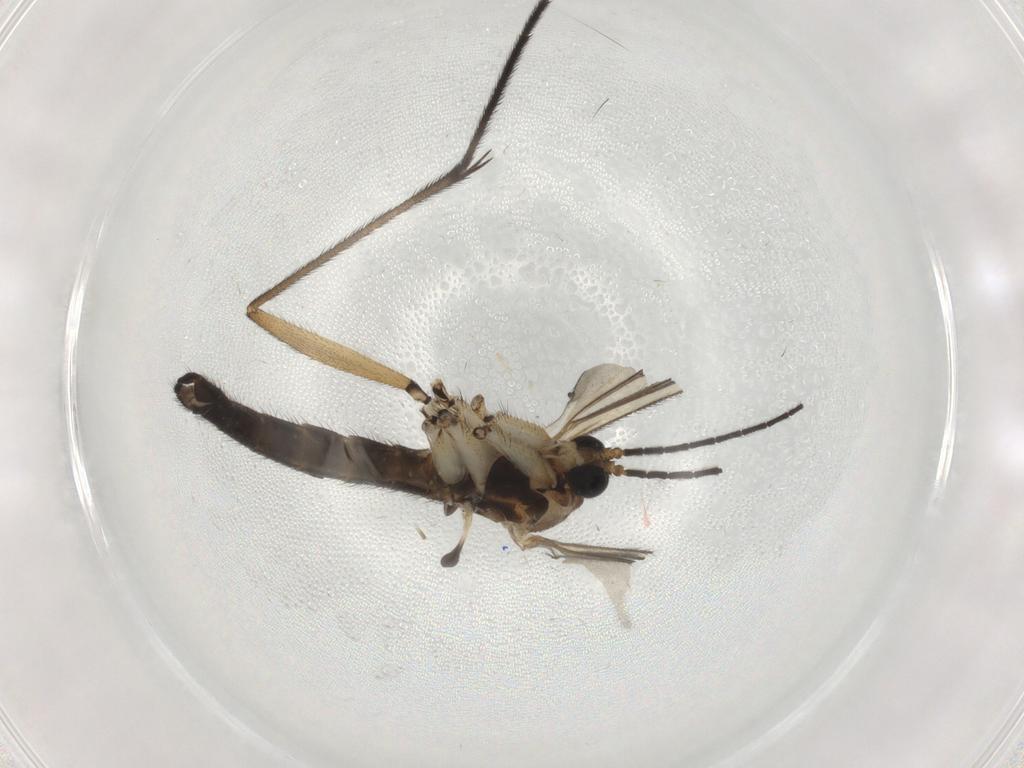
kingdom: Animalia
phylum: Arthropoda
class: Insecta
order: Diptera
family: Sciaridae
